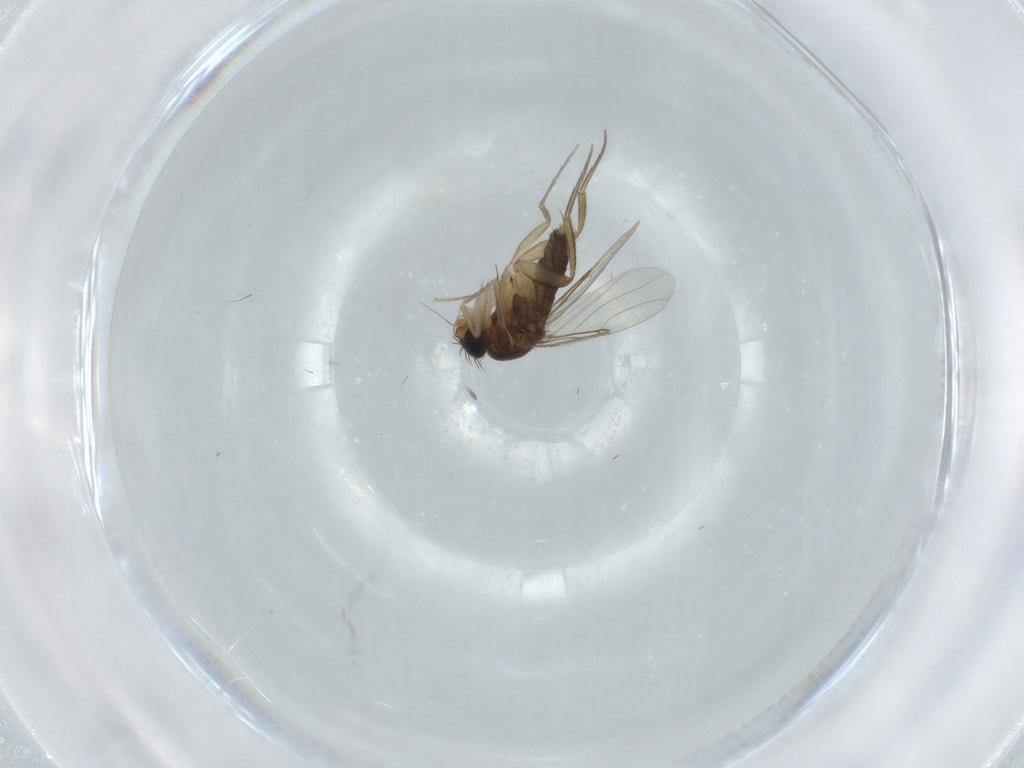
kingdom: Animalia
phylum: Arthropoda
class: Insecta
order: Diptera
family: Phoridae
